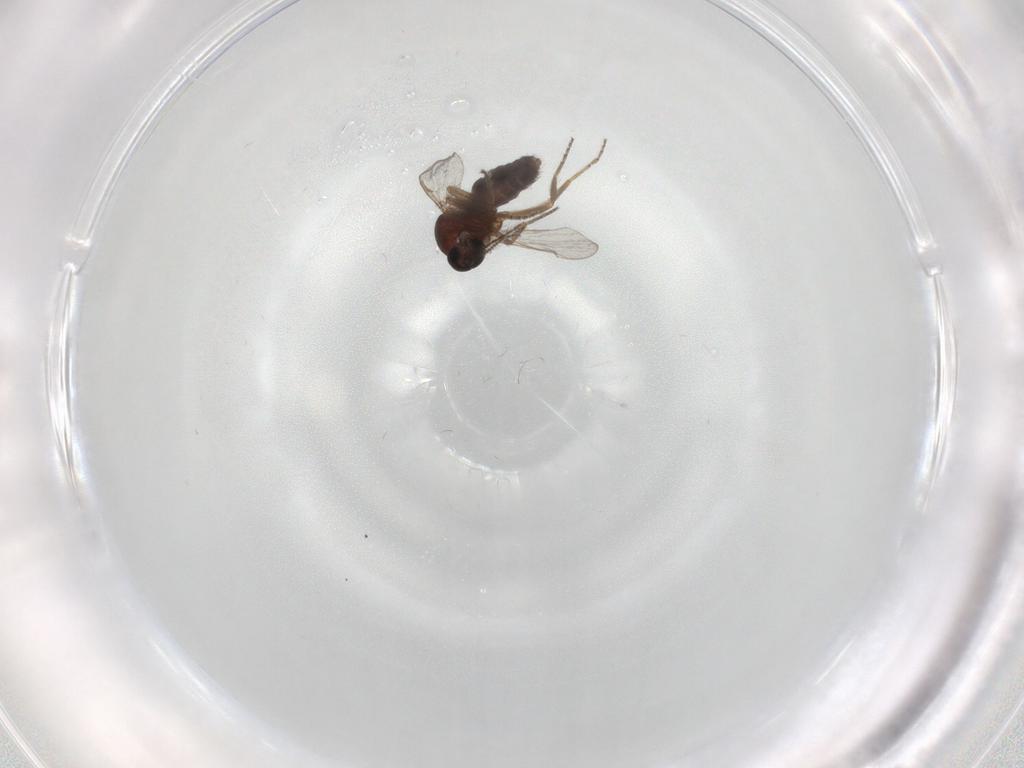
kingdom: Animalia
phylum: Arthropoda
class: Insecta
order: Diptera
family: Ceratopogonidae
